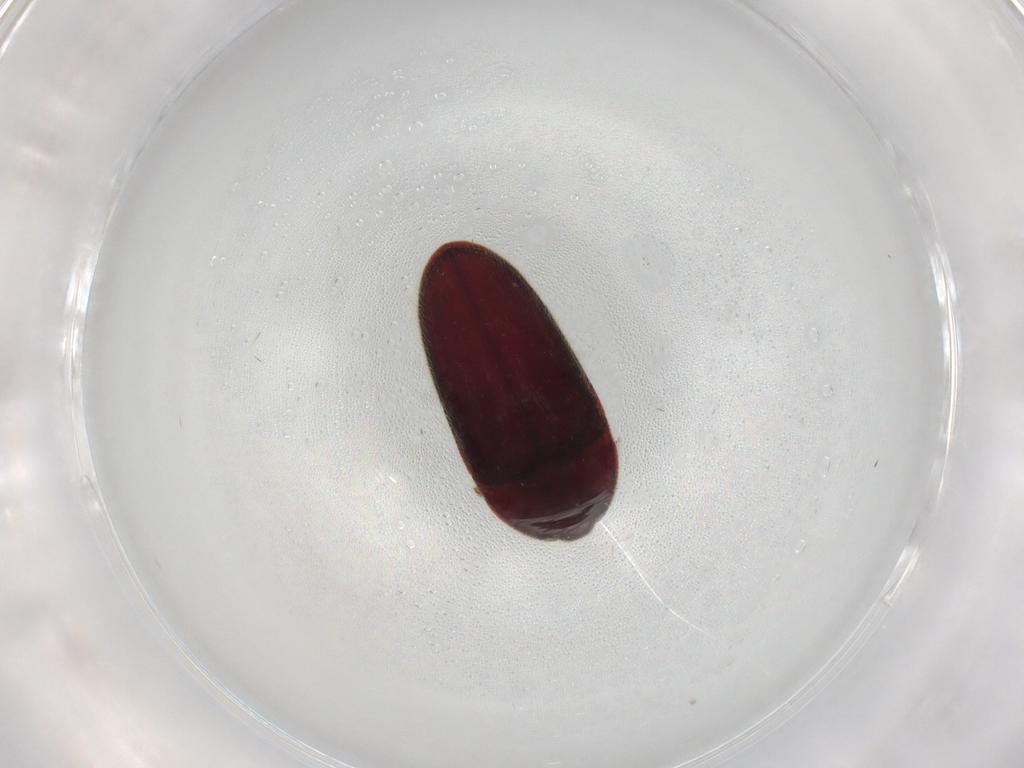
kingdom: Animalia
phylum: Arthropoda
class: Insecta
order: Coleoptera
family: Throscidae
